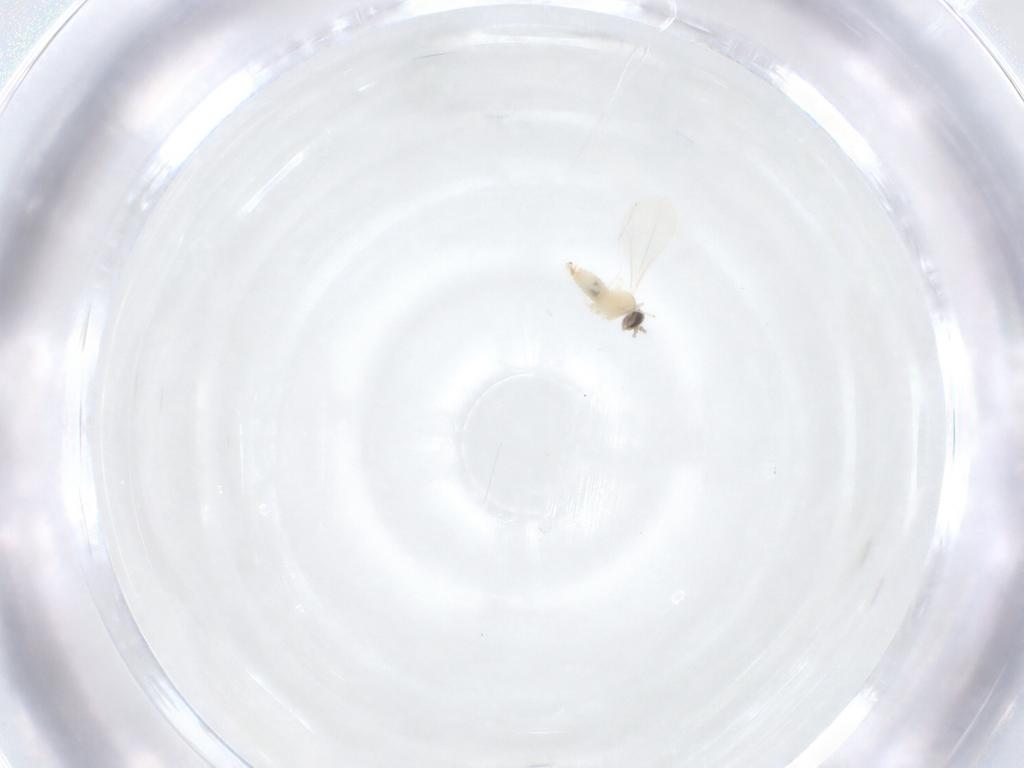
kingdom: Animalia
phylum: Arthropoda
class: Insecta
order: Diptera
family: Cecidomyiidae
